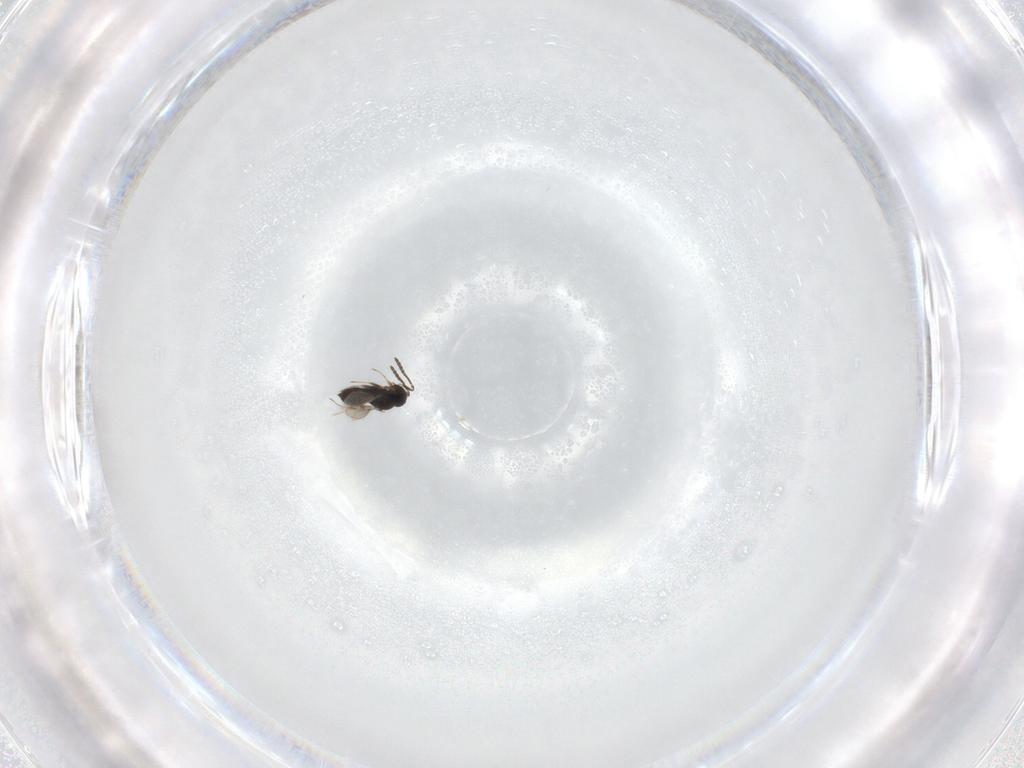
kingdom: Animalia
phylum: Arthropoda
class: Insecta
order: Hymenoptera
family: Scelionidae
